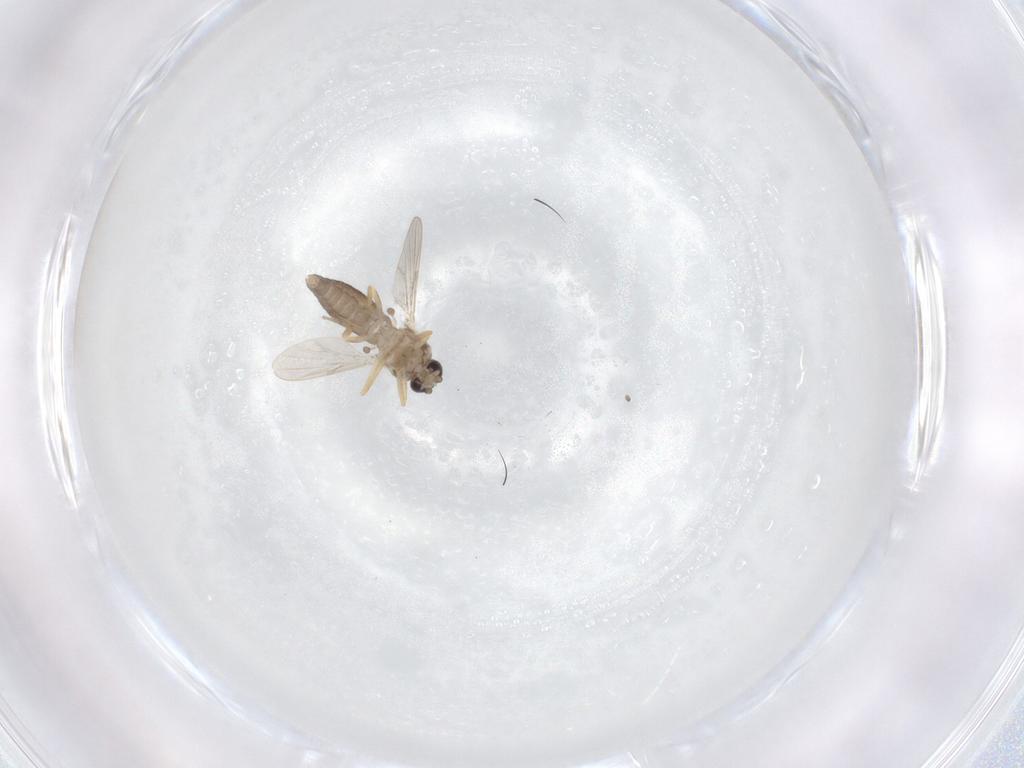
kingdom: Animalia
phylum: Arthropoda
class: Insecta
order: Diptera
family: Ceratopogonidae
